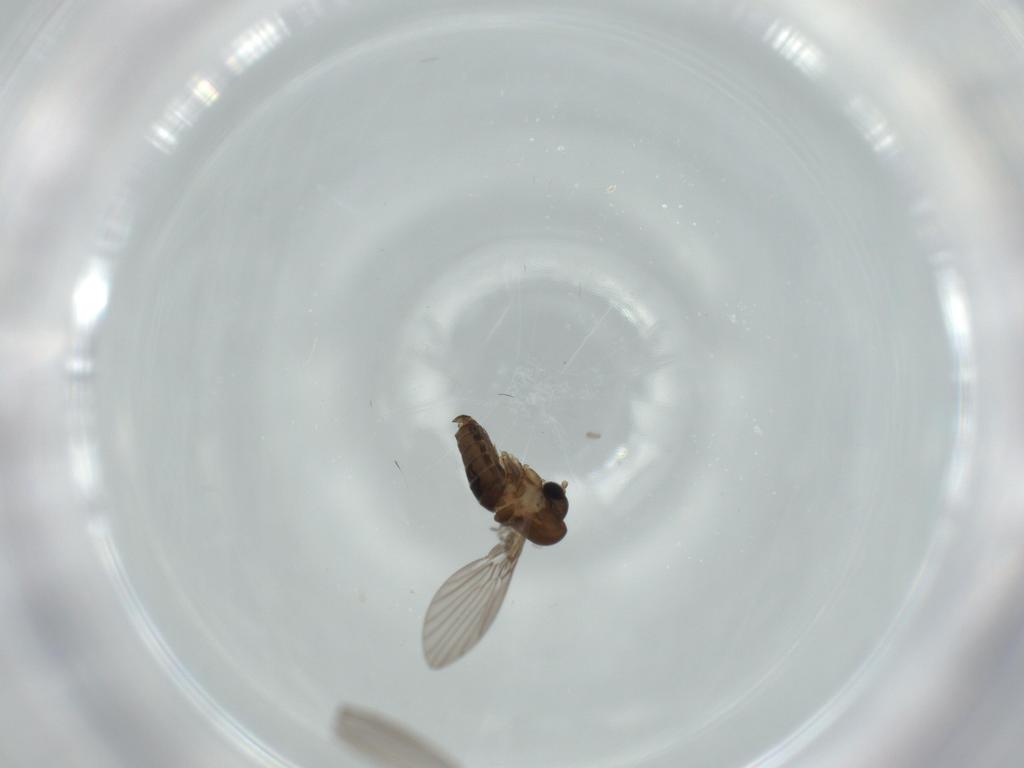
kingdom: Animalia
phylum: Arthropoda
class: Insecta
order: Diptera
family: Psychodidae
